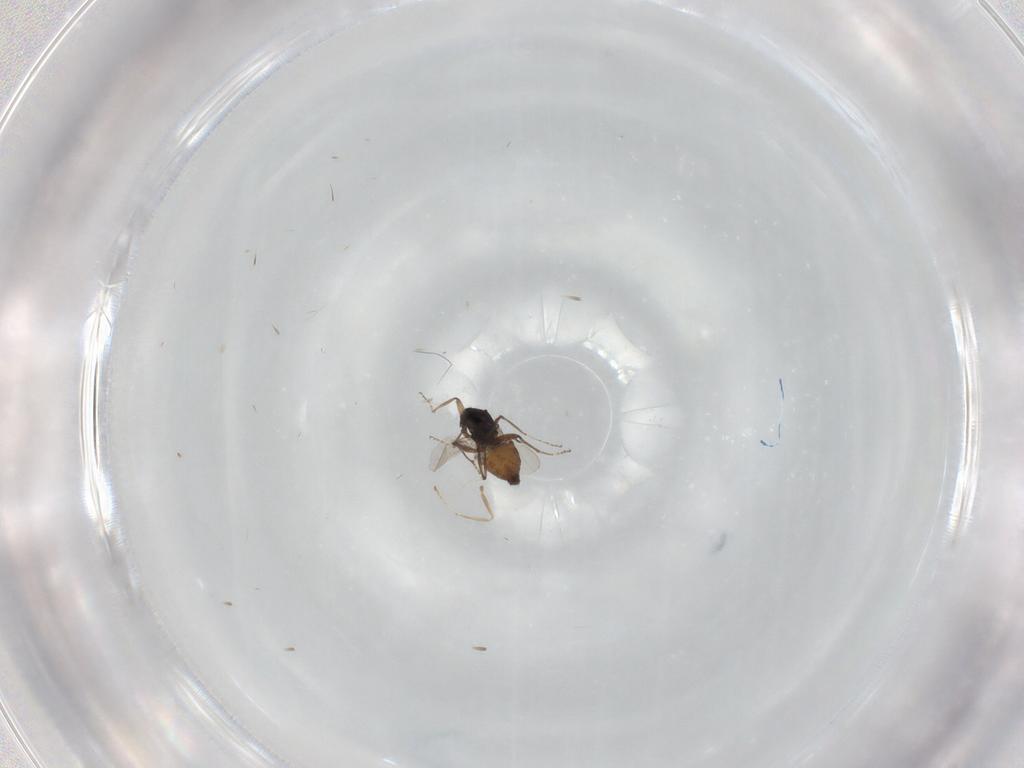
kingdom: Animalia
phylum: Arthropoda
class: Insecta
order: Diptera
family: Ceratopogonidae
